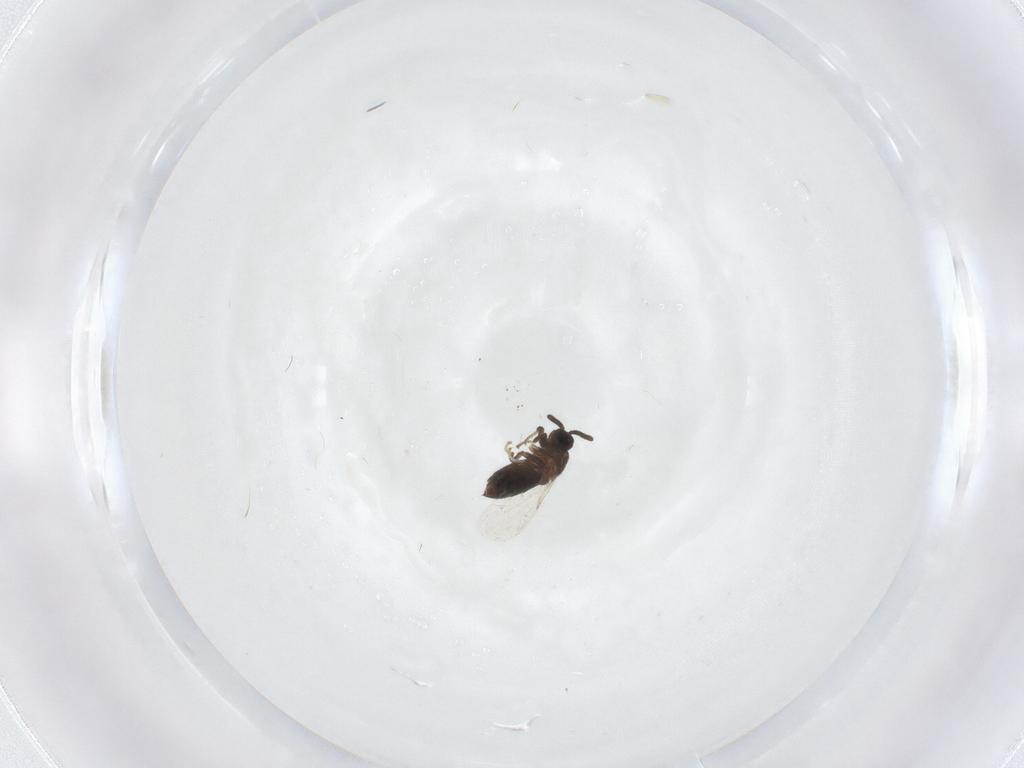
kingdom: Animalia
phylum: Arthropoda
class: Insecta
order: Diptera
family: Scatopsidae
